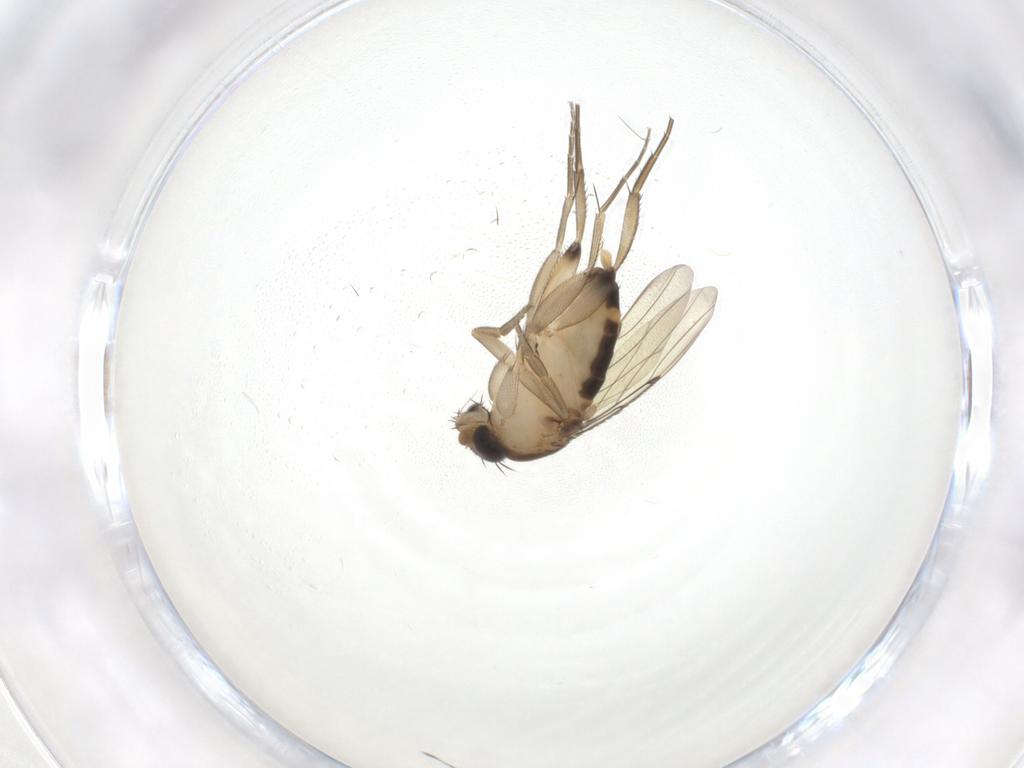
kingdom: Animalia
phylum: Arthropoda
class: Insecta
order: Diptera
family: Phoridae
